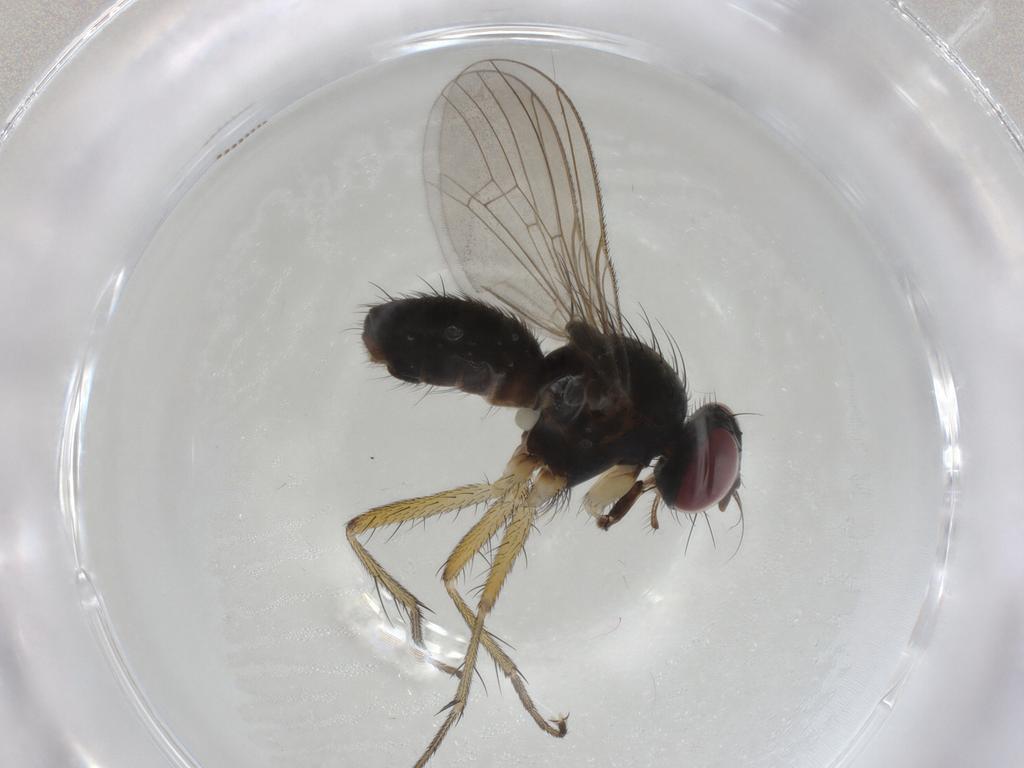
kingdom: Animalia
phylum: Arthropoda
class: Insecta
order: Diptera
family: Muscidae
